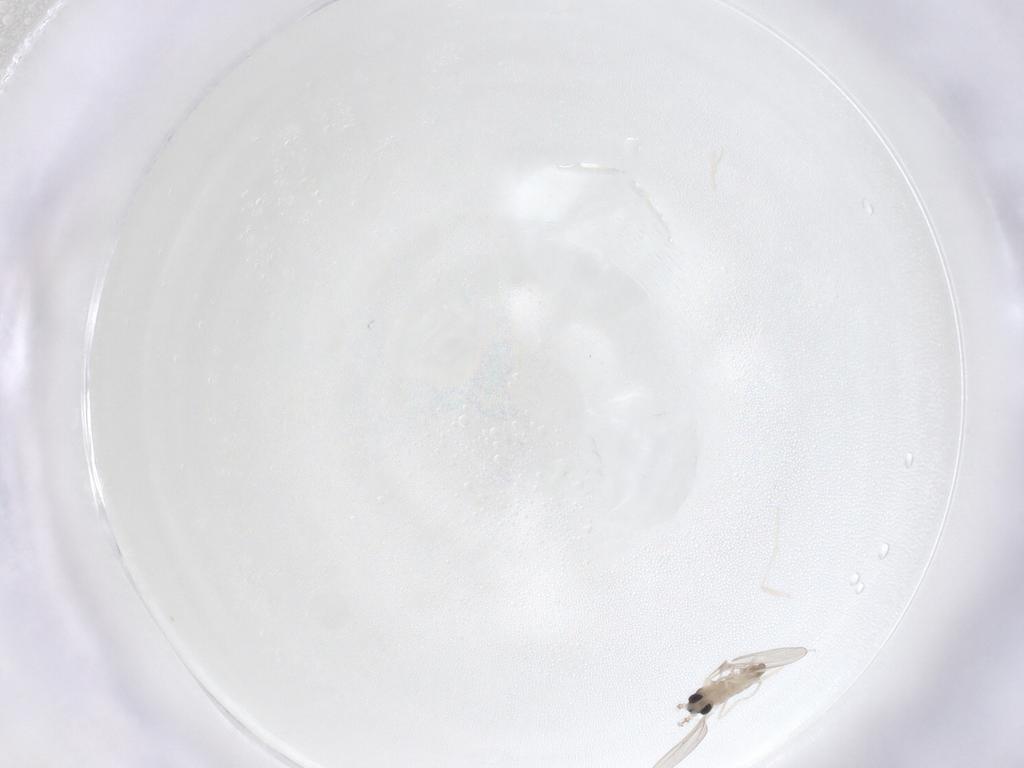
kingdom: Animalia
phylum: Arthropoda
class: Insecta
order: Diptera
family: Cecidomyiidae
